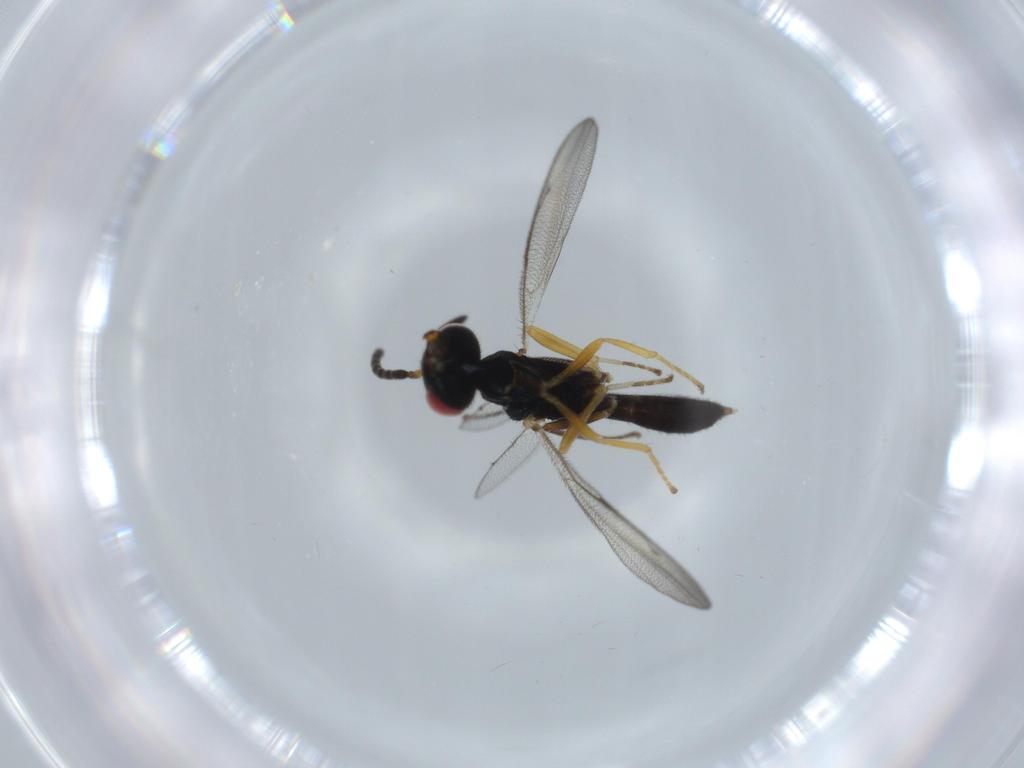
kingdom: Animalia
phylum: Arthropoda
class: Insecta
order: Hymenoptera
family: Pteromalidae
